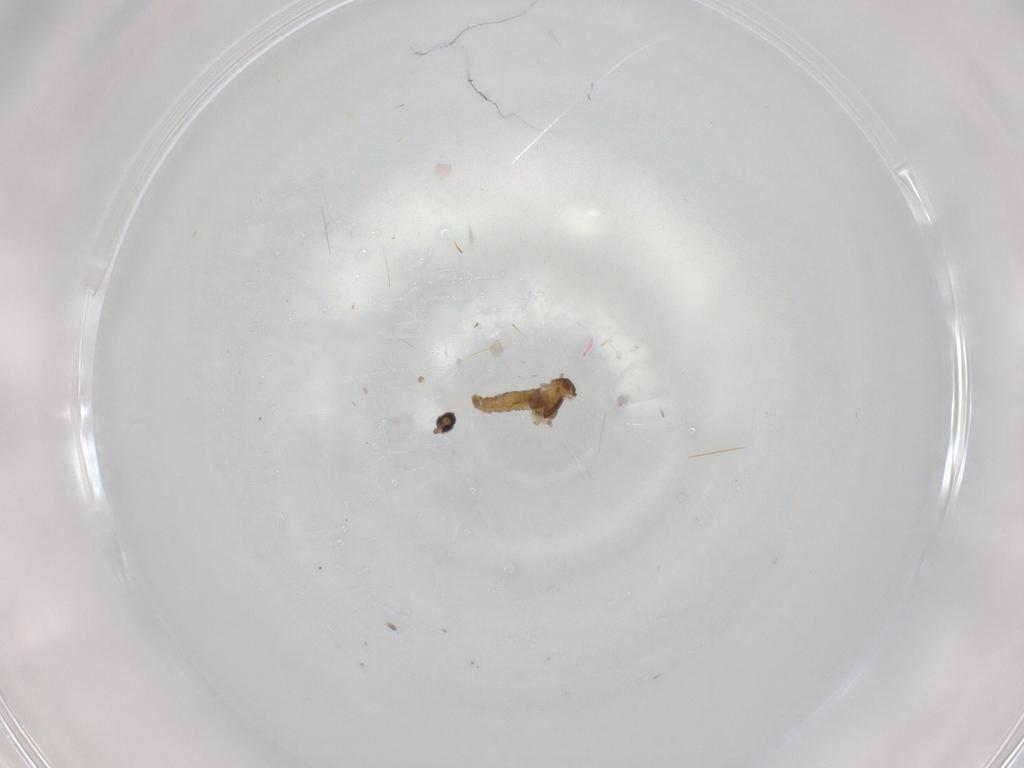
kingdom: Animalia
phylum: Arthropoda
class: Insecta
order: Diptera
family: Cecidomyiidae
